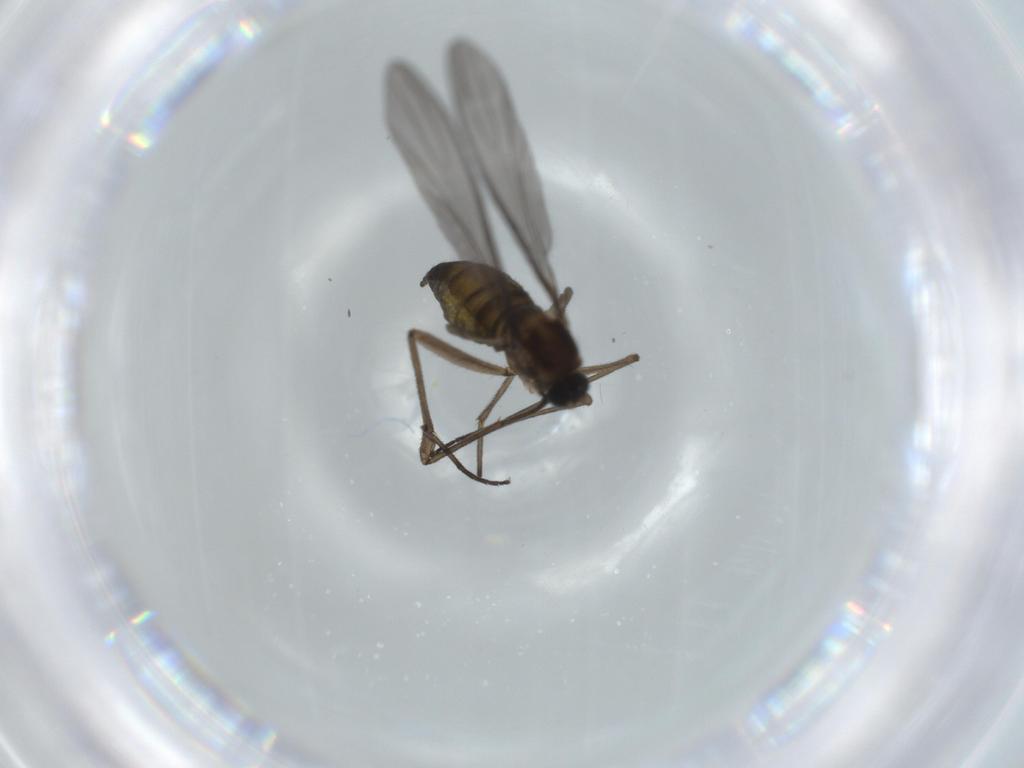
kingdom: Animalia
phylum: Arthropoda
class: Insecta
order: Diptera
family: Sciaridae
